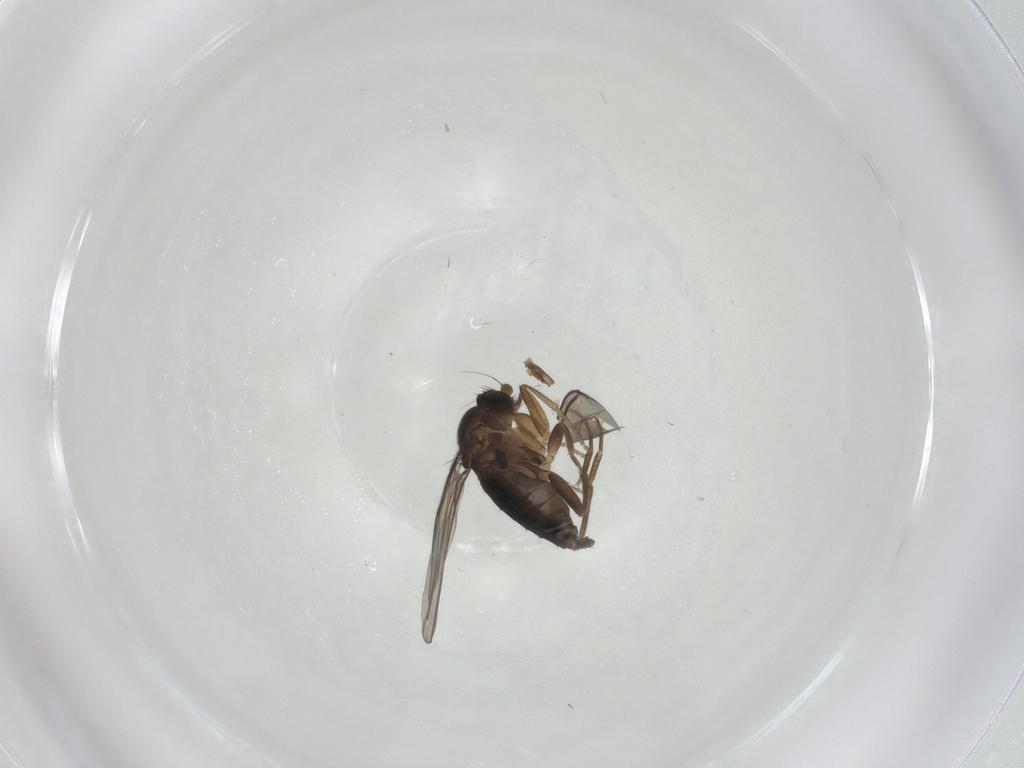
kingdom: Animalia
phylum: Arthropoda
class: Insecta
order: Diptera
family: Phoridae
